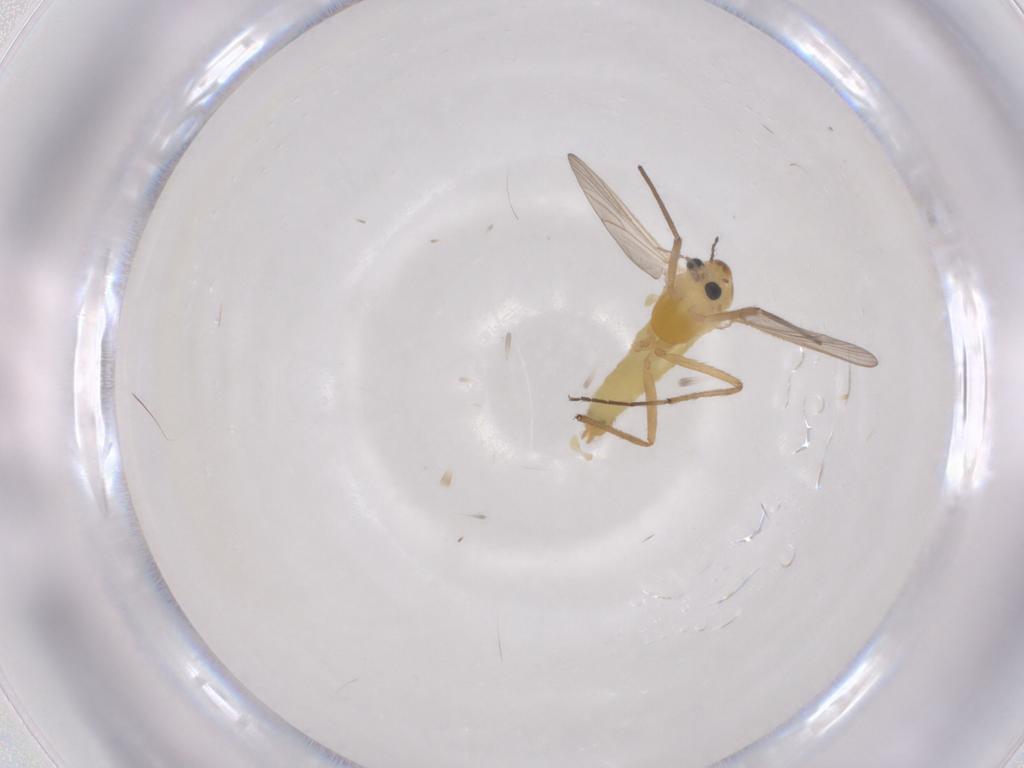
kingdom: Animalia
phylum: Arthropoda
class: Insecta
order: Diptera
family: Chironomidae
